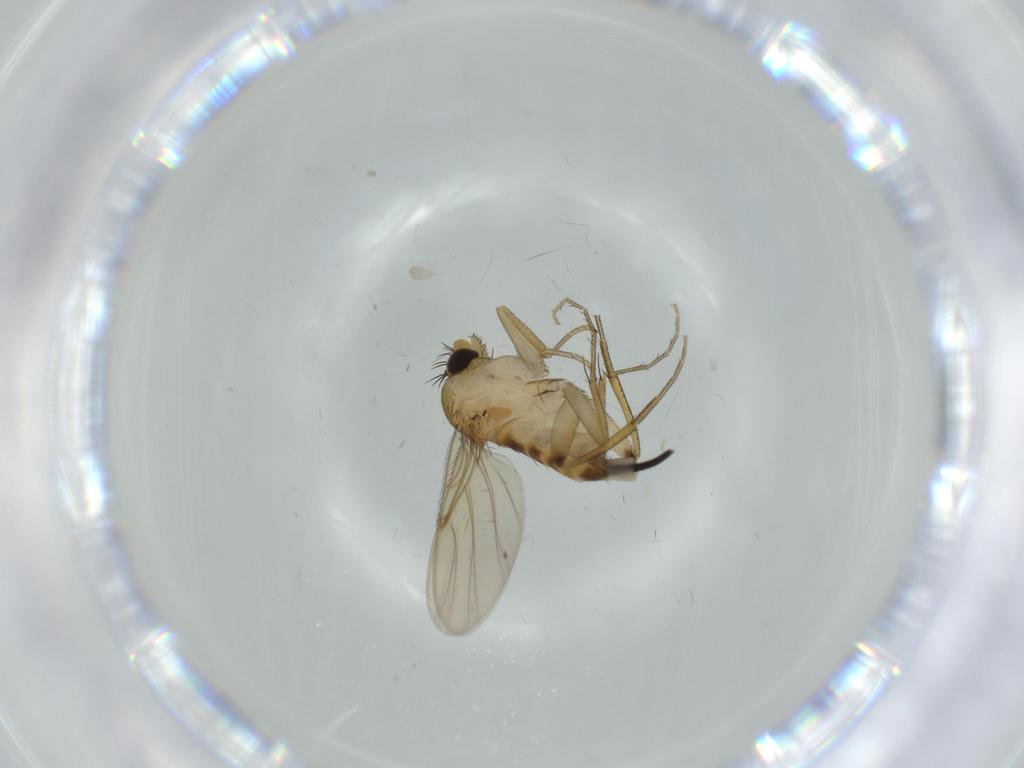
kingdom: Animalia
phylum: Arthropoda
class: Insecta
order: Diptera
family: Phoridae
